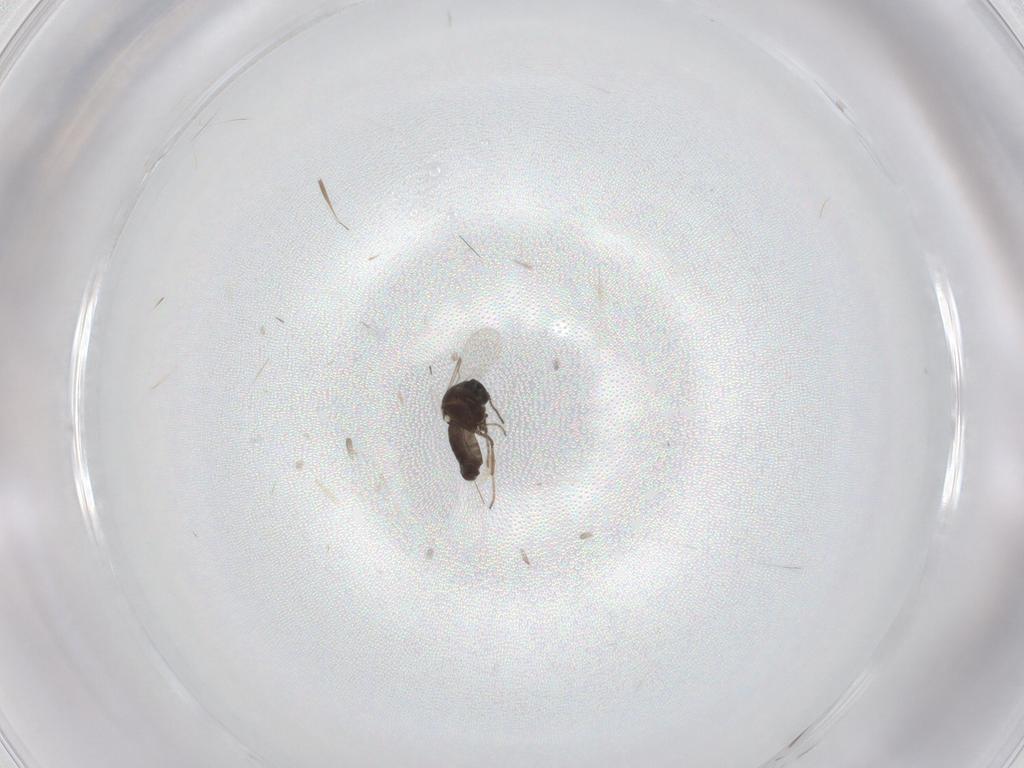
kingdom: Animalia
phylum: Arthropoda
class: Insecta
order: Diptera
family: Ceratopogonidae
